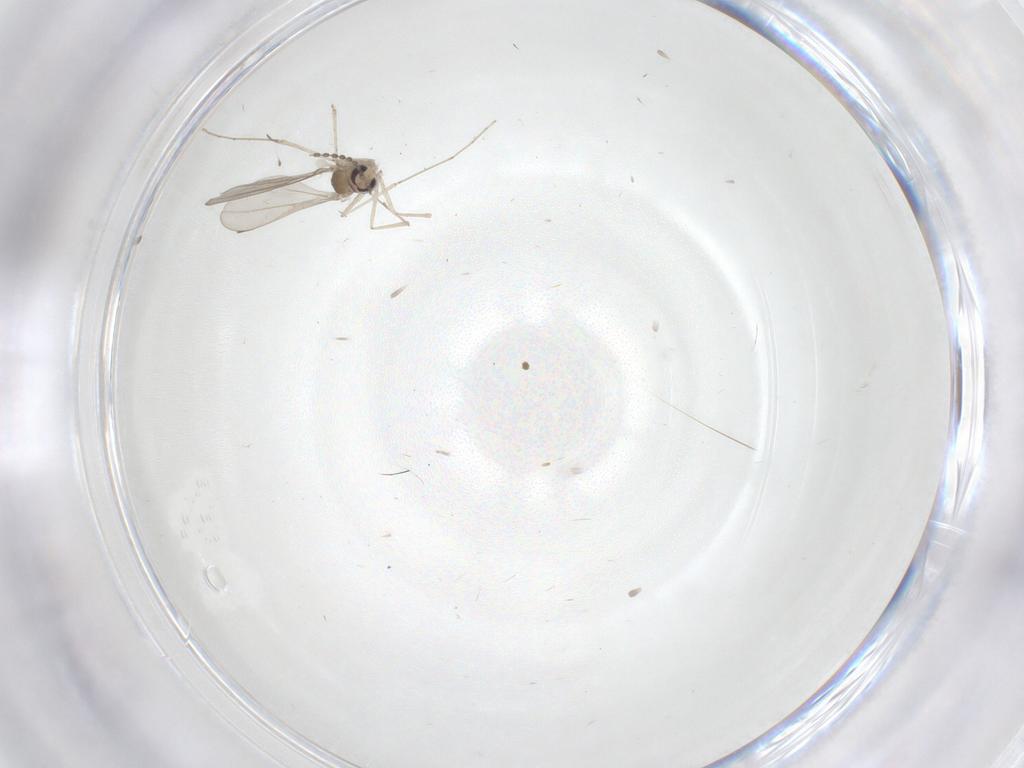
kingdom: Animalia
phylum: Arthropoda
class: Insecta
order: Diptera
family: Cecidomyiidae
